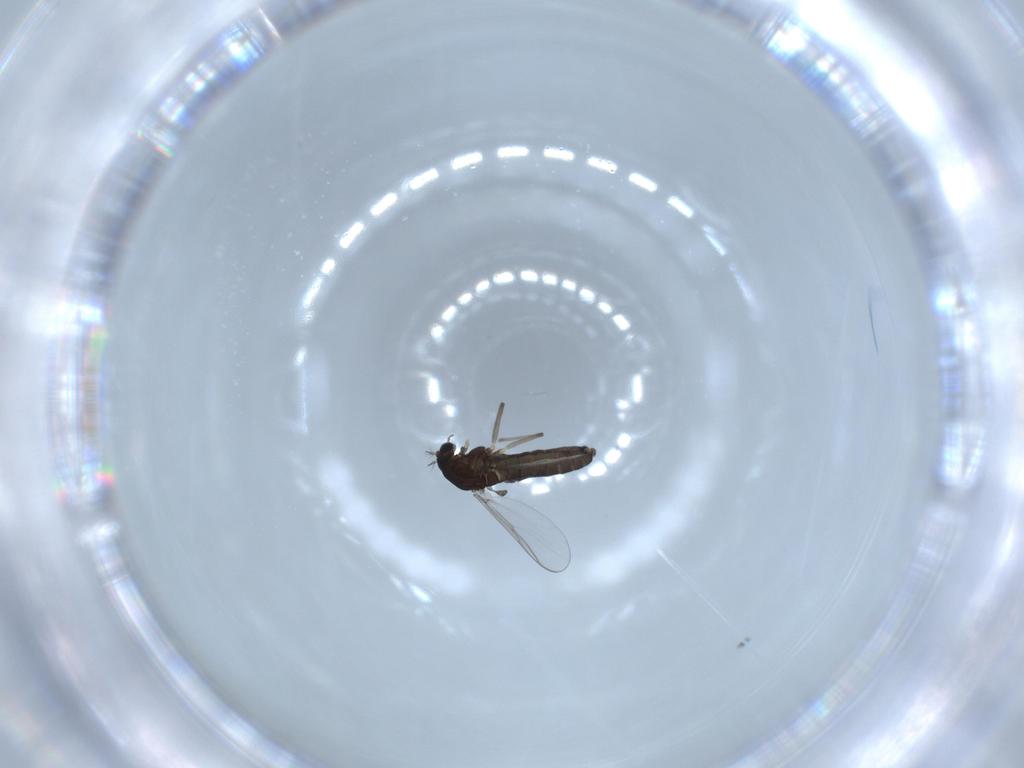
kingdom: Animalia
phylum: Arthropoda
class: Insecta
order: Diptera
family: Chironomidae
